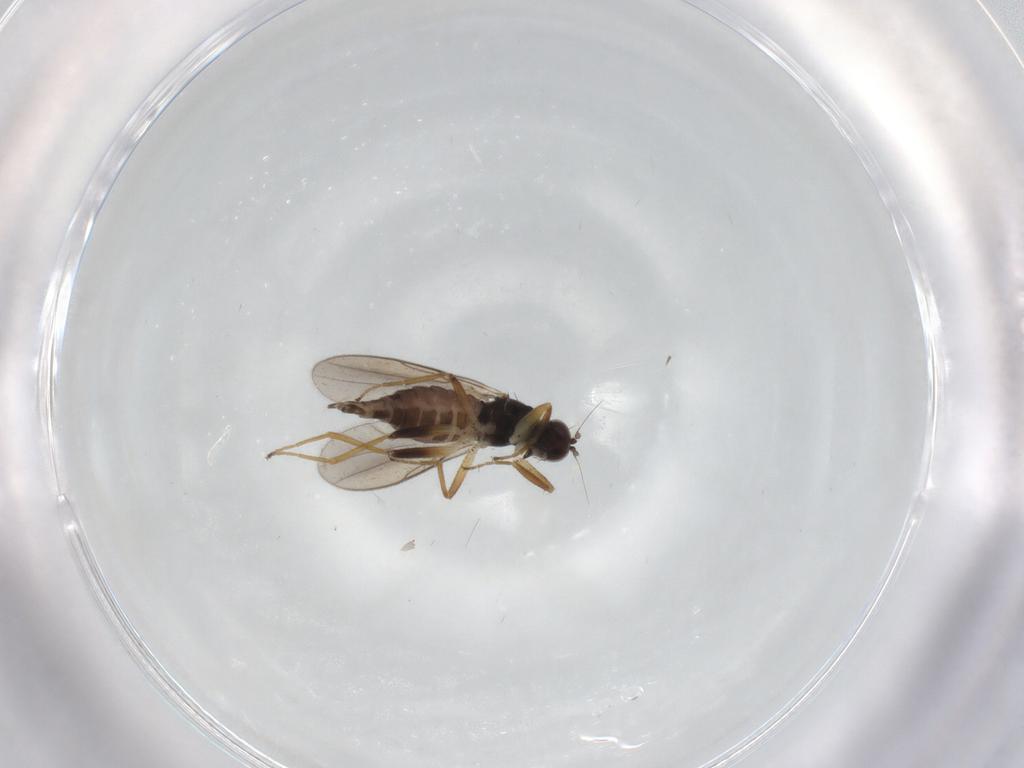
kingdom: Animalia
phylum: Arthropoda
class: Insecta
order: Diptera
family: Hybotidae
